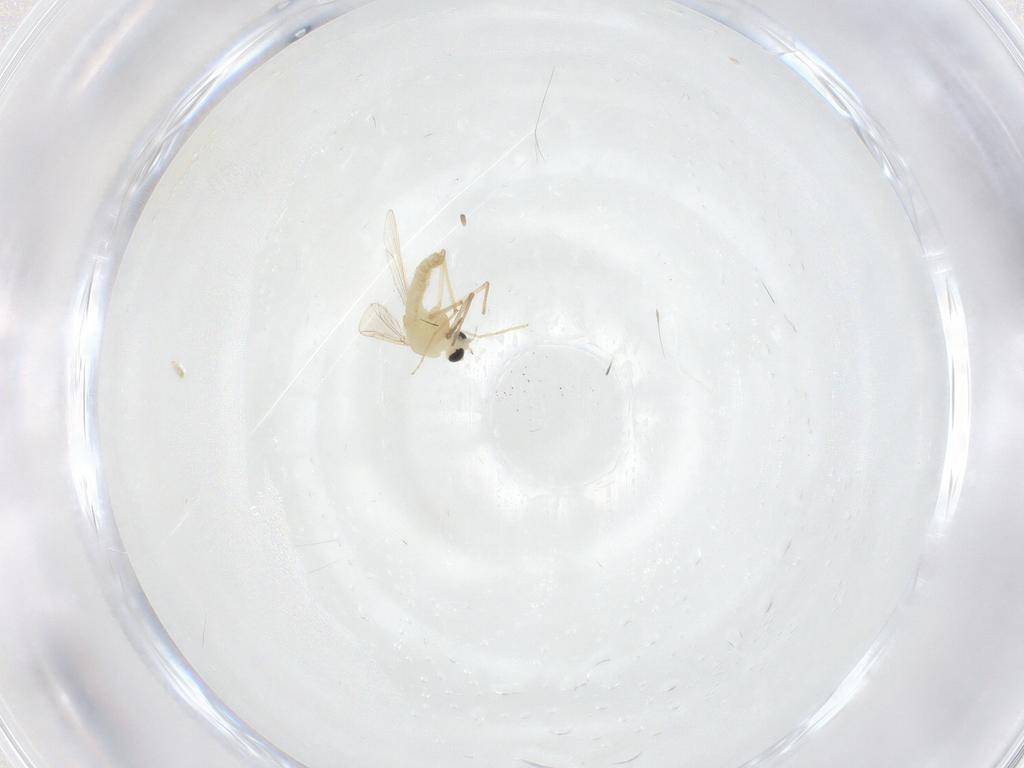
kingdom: Animalia
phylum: Arthropoda
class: Insecta
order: Diptera
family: Chironomidae
